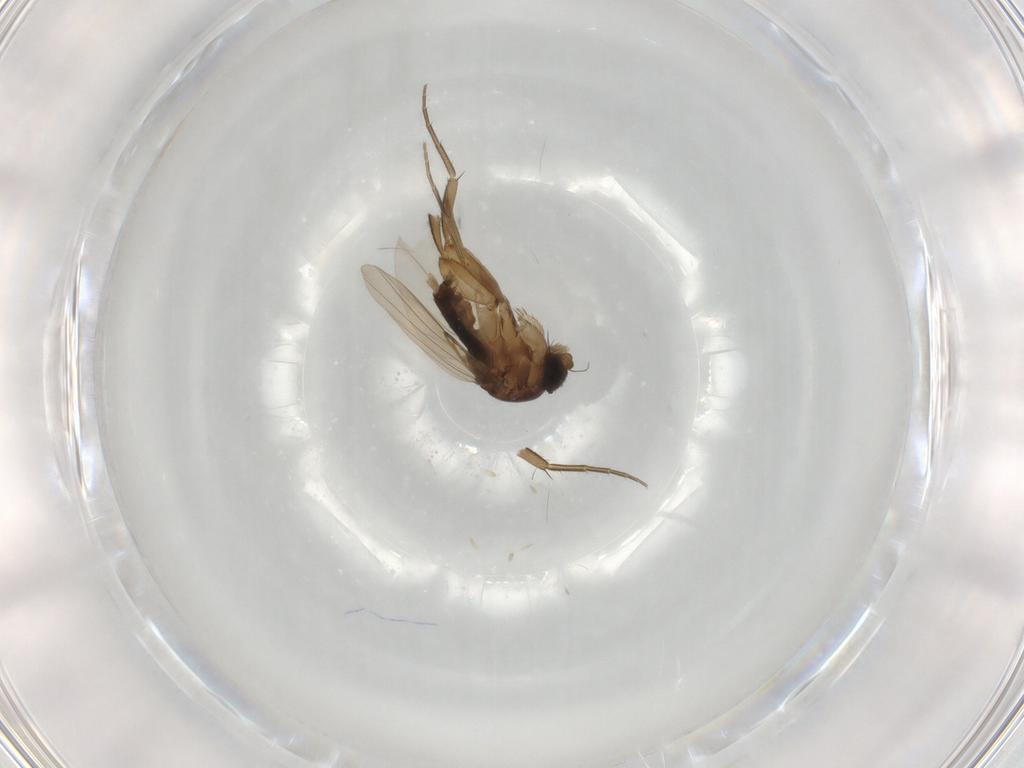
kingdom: Animalia
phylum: Arthropoda
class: Insecta
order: Diptera
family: Phoridae
